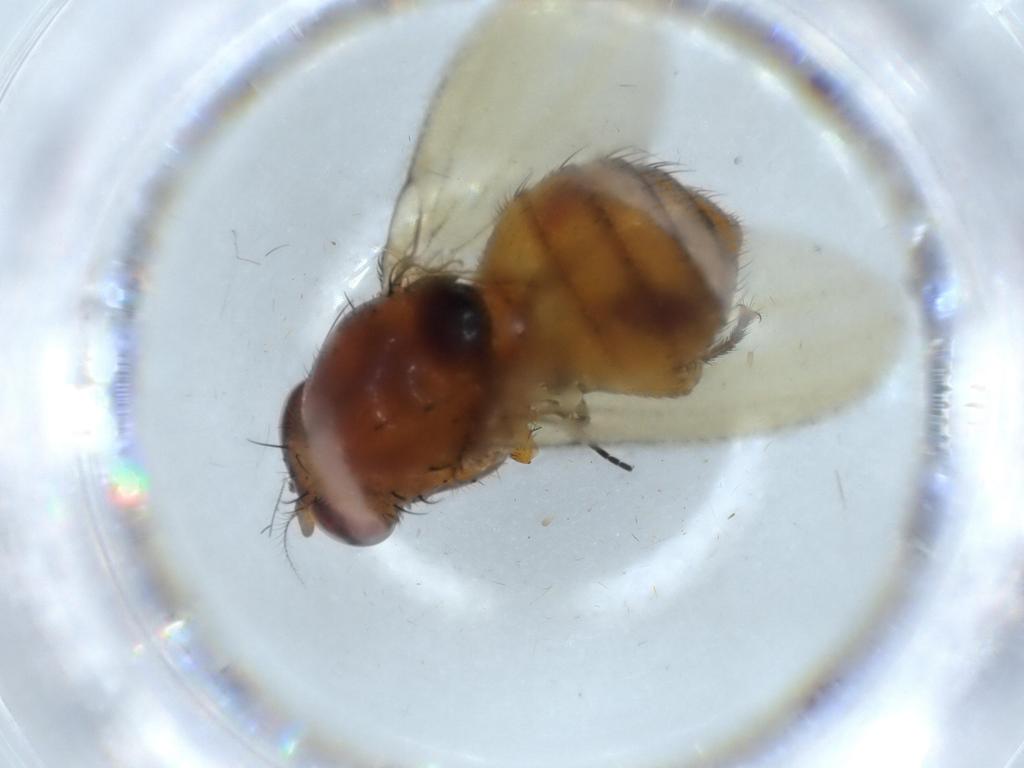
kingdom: Animalia
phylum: Arthropoda
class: Insecta
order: Diptera
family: Anthomyiidae
